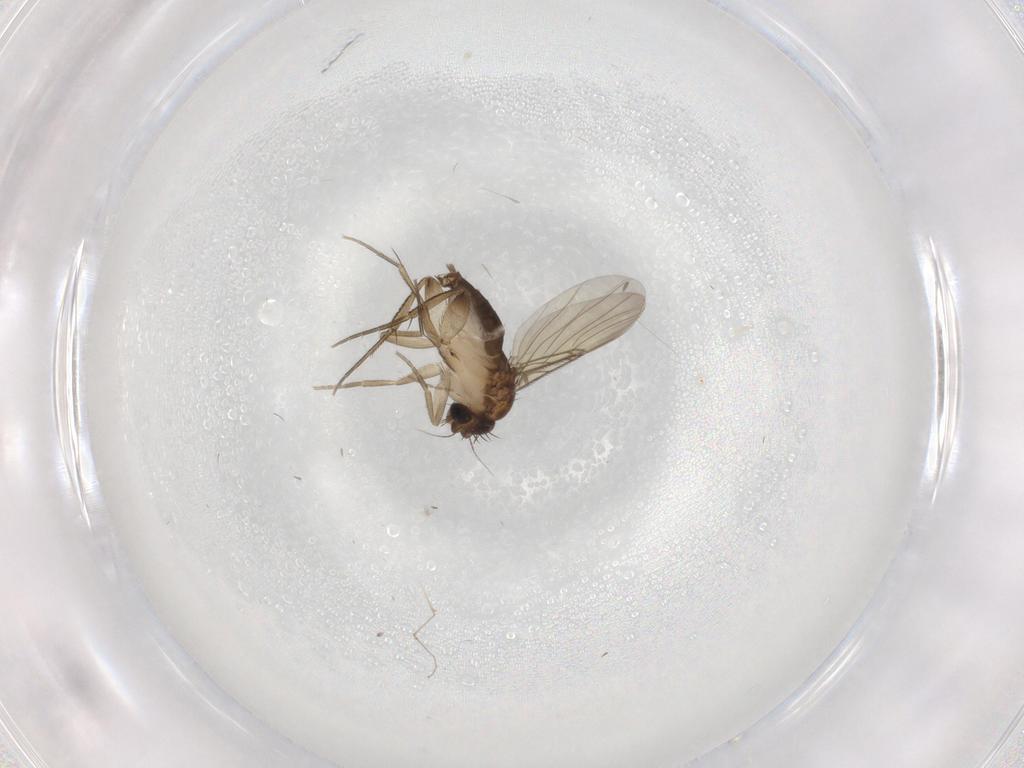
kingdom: Animalia
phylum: Arthropoda
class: Insecta
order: Diptera
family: Phoridae
